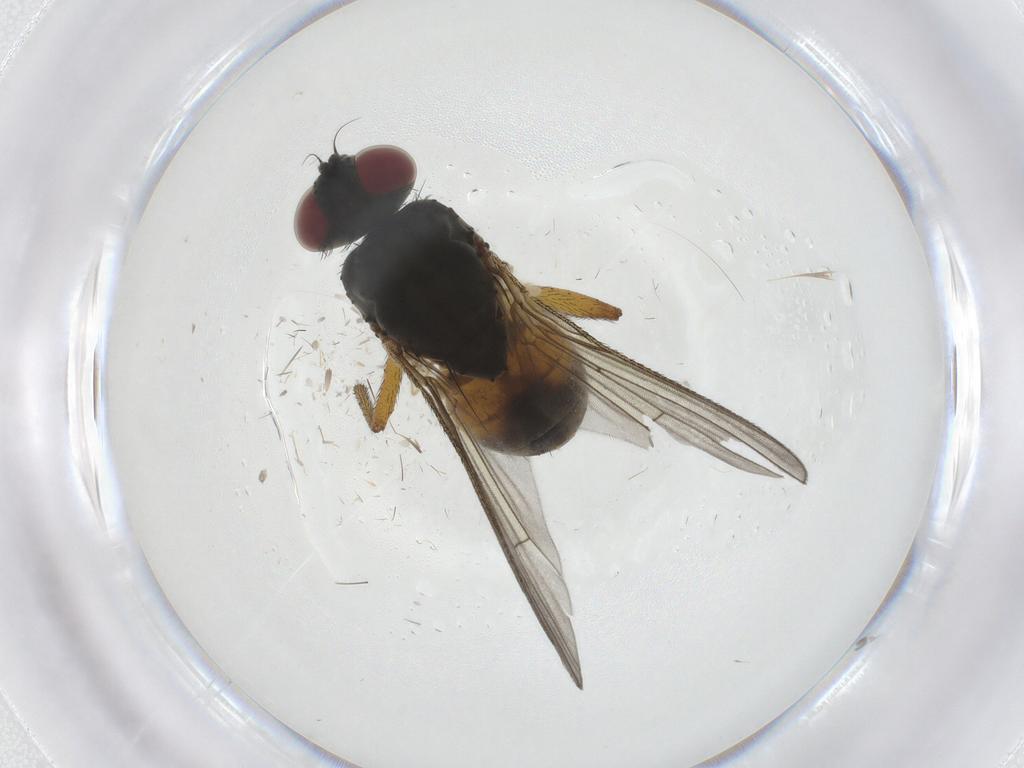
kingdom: Animalia
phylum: Arthropoda
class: Insecta
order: Diptera
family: Muscidae
